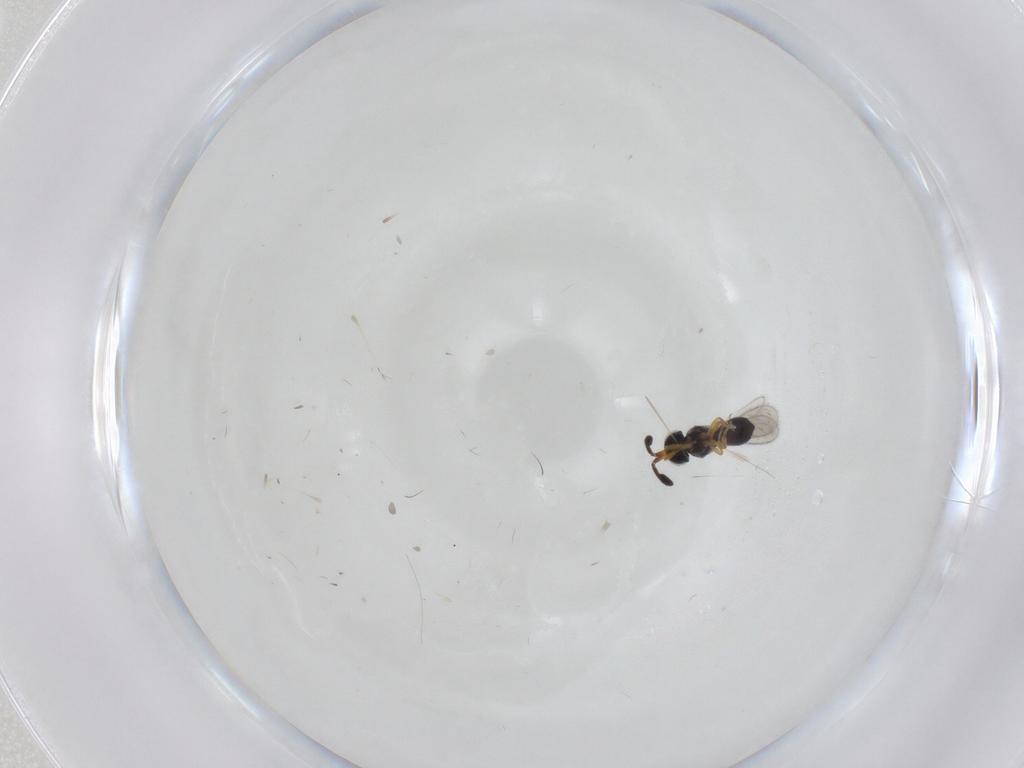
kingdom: Animalia
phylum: Arthropoda
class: Insecta
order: Hymenoptera
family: Scelionidae
